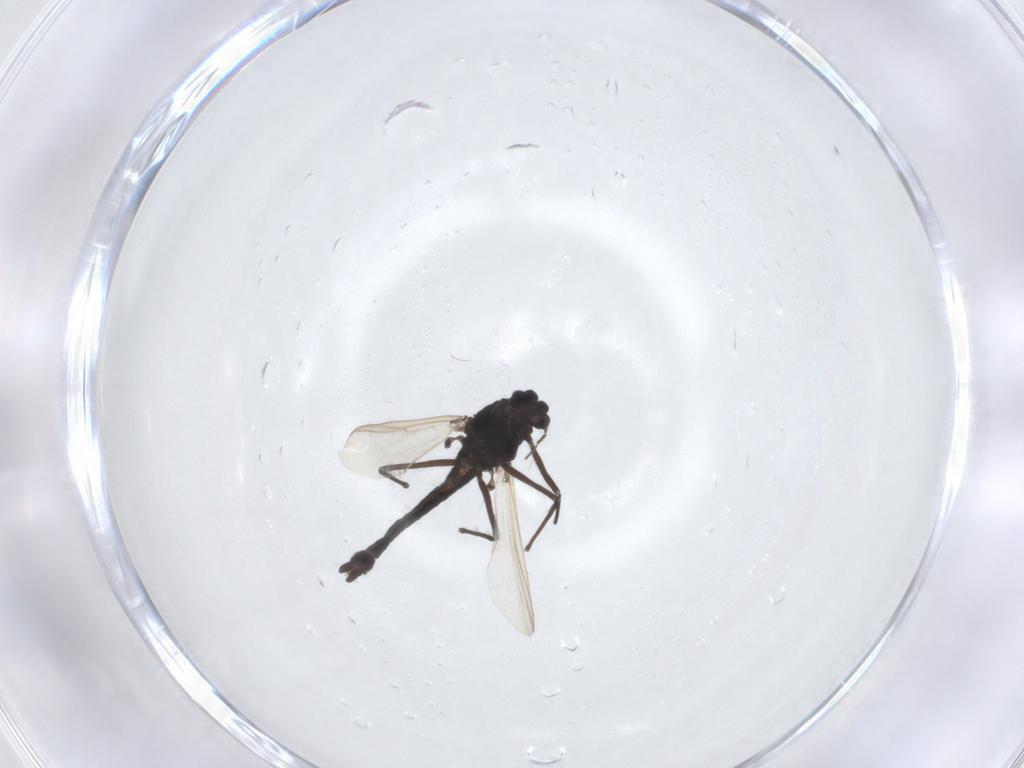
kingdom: Animalia
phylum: Arthropoda
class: Insecta
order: Diptera
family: Chironomidae
